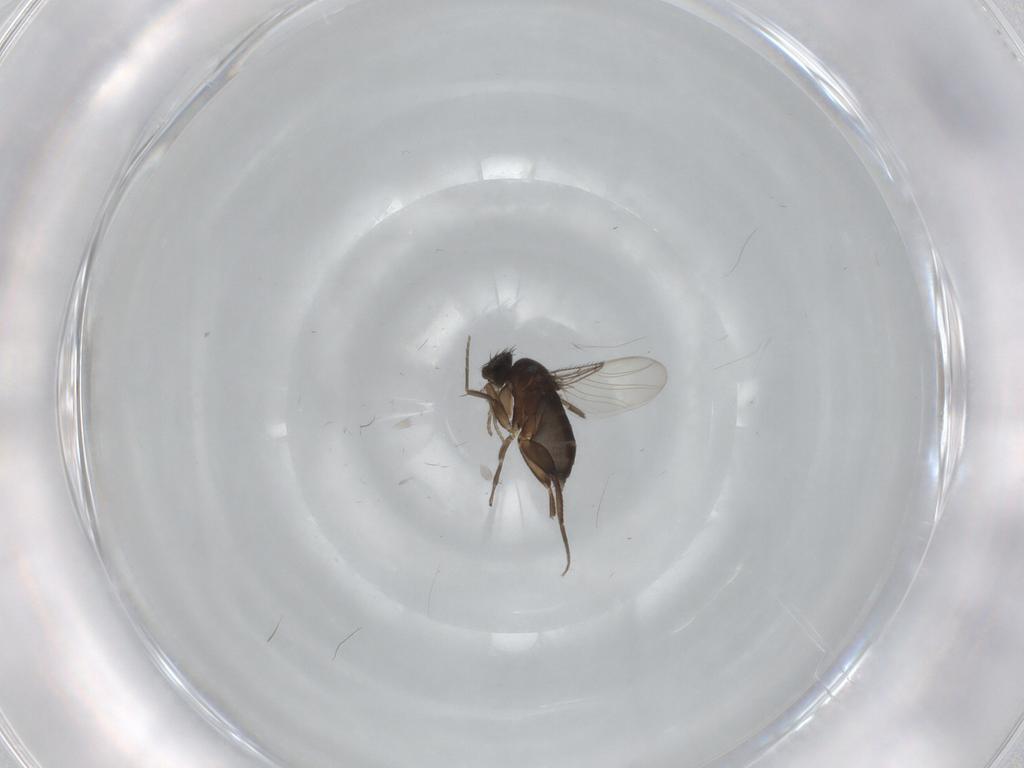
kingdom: Animalia
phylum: Arthropoda
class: Insecta
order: Diptera
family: Phoridae
